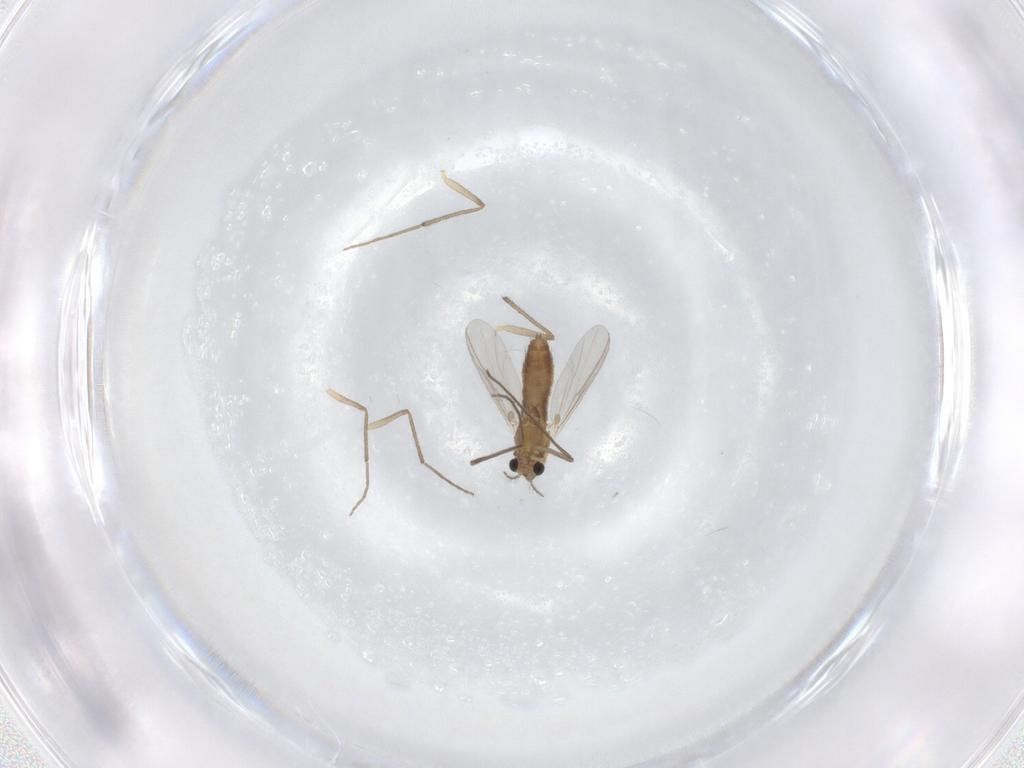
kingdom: Animalia
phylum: Arthropoda
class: Insecta
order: Diptera
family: Chironomidae
